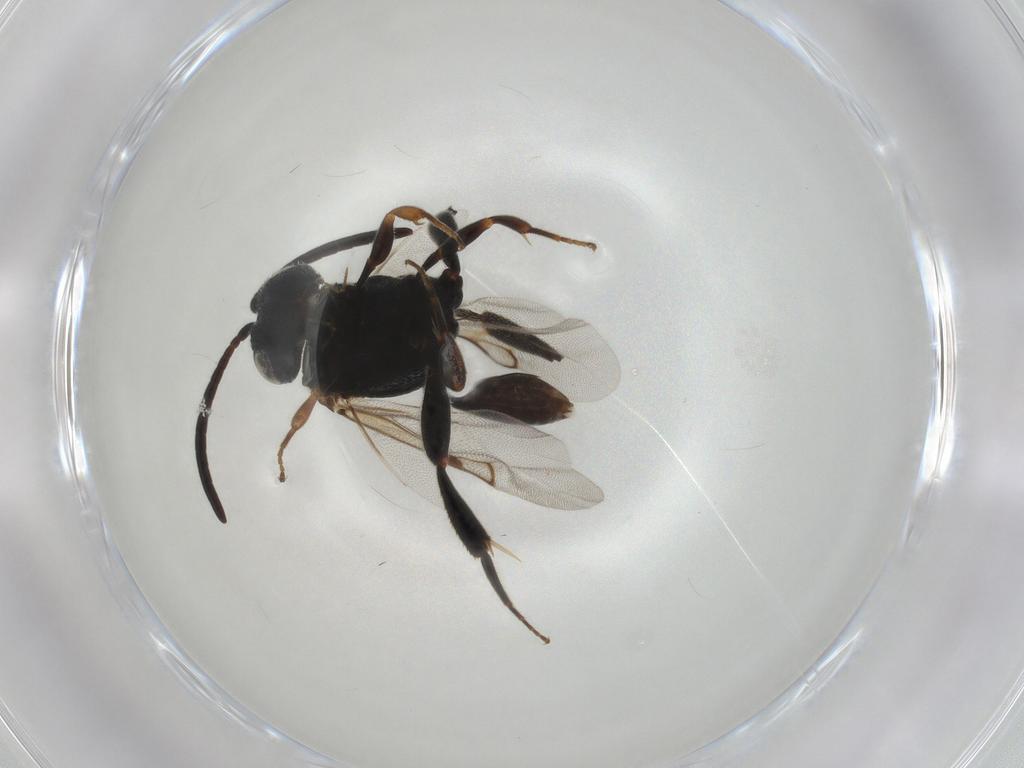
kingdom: Animalia
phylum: Arthropoda
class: Insecta
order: Hymenoptera
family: Evaniidae
